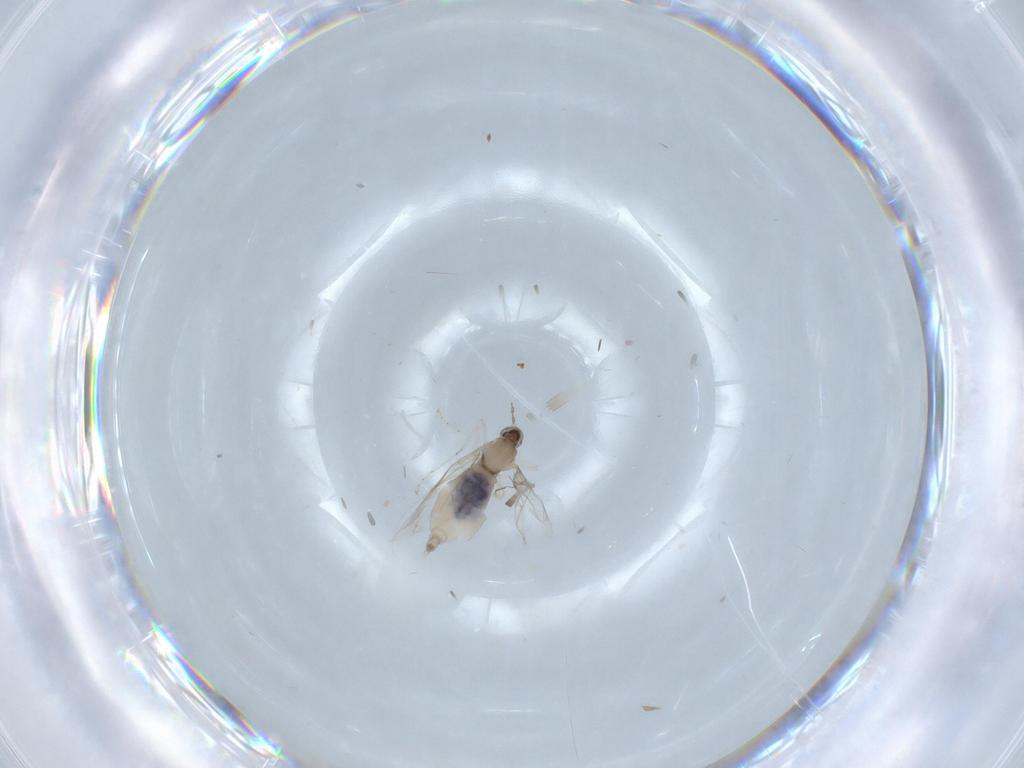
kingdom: Animalia
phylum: Arthropoda
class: Insecta
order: Diptera
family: Cecidomyiidae
